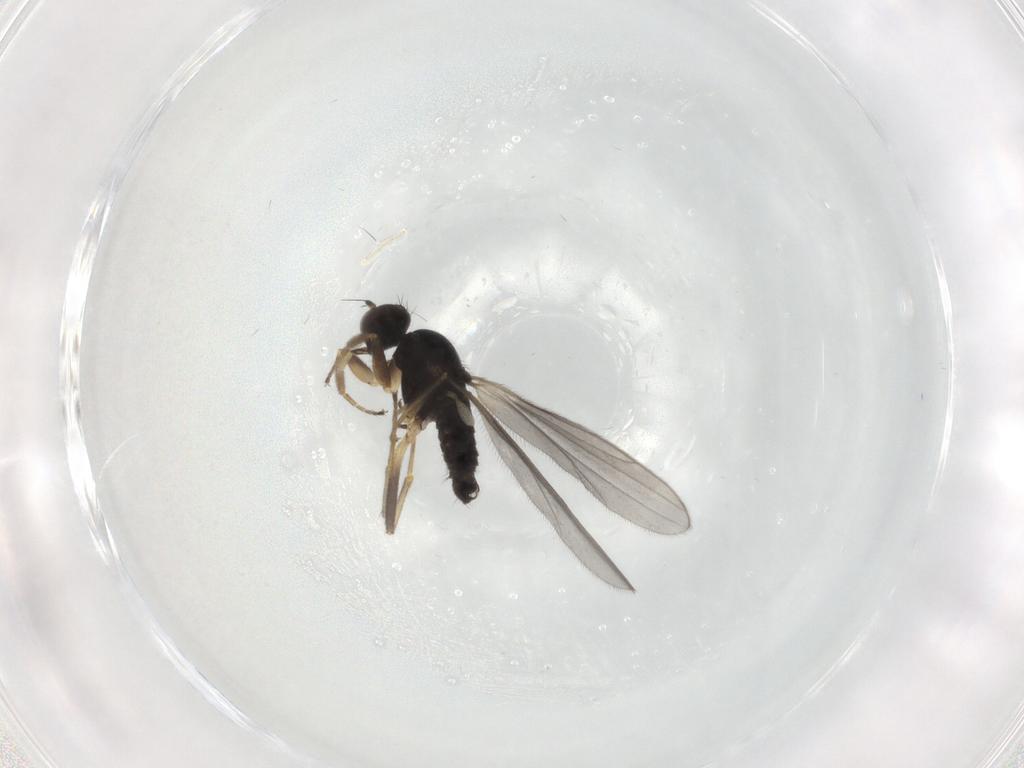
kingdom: Animalia
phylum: Arthropoda
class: Insecta
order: Diptera
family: Hybotidae
